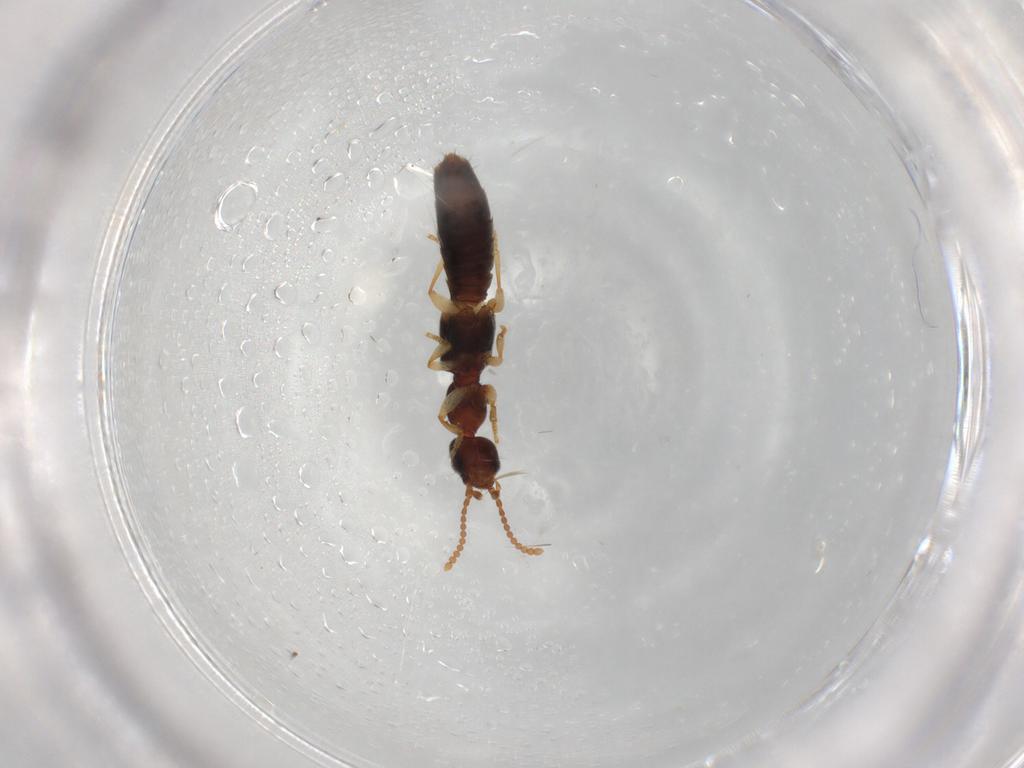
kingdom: Animalia
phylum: Arthropoda
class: Insecta
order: Coleoptera
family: Staphylinidae
